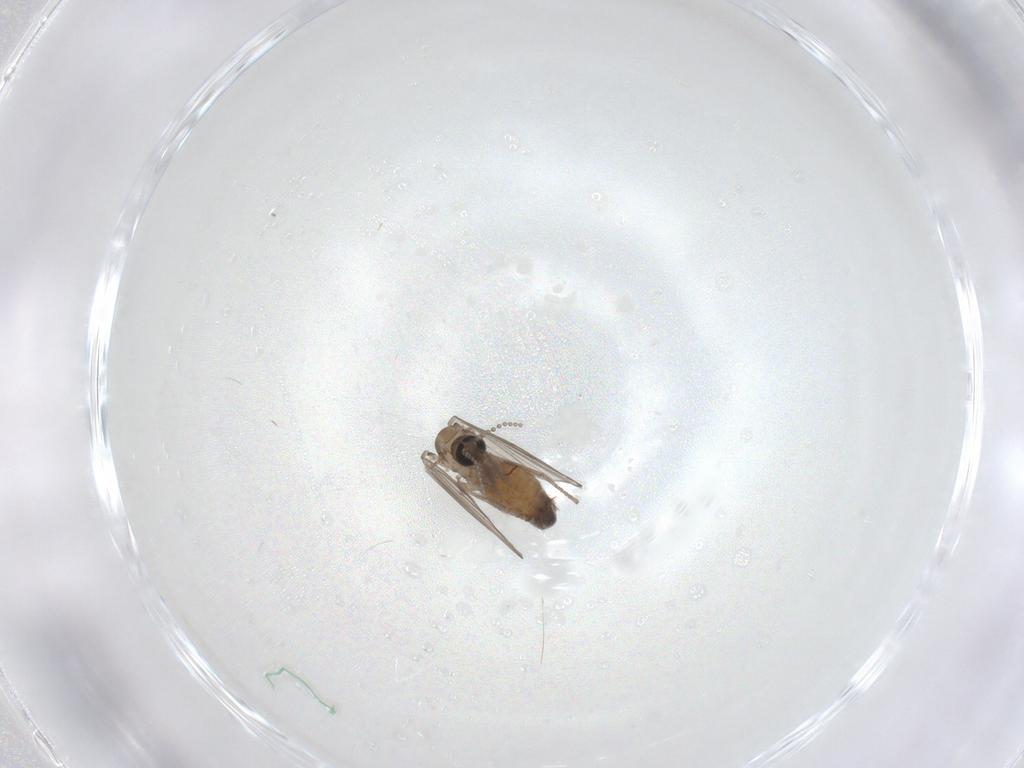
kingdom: Animalia
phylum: Arthropoda
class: Insecta
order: Diptera
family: Psychodidae
